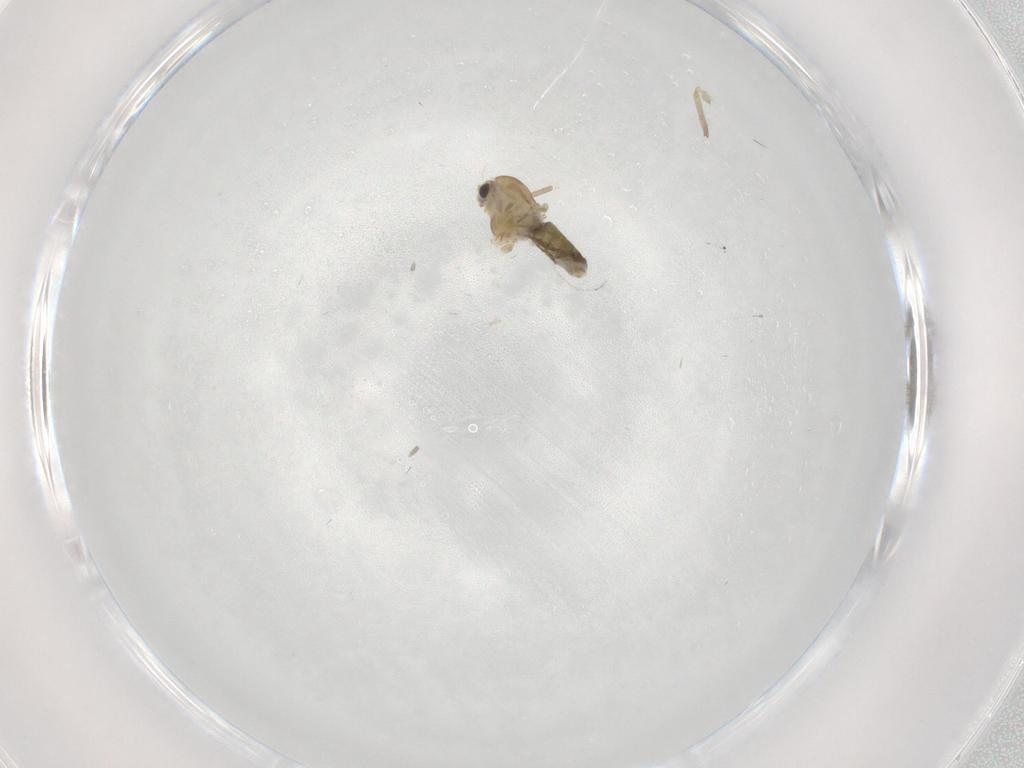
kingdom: Animalia
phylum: Arthropoda
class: Insecta
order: Diptera
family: Cecidomyiidae
